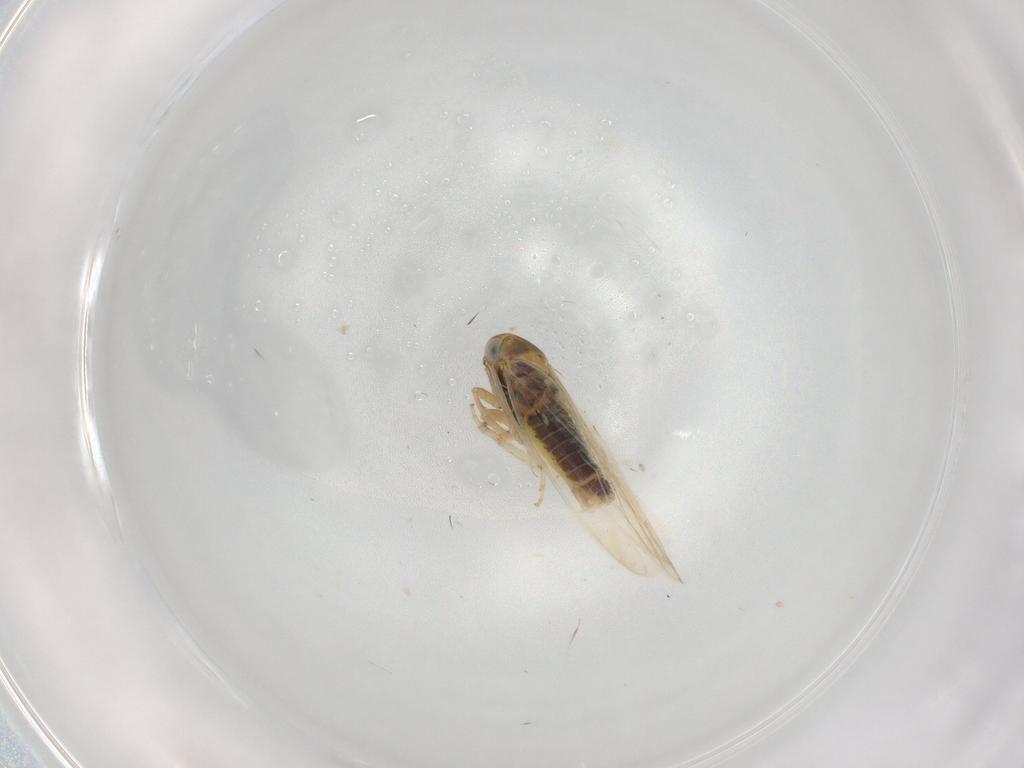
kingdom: Animalia
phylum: Arthropoda
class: Insecta
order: Hemiptera
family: Cicadellidae
